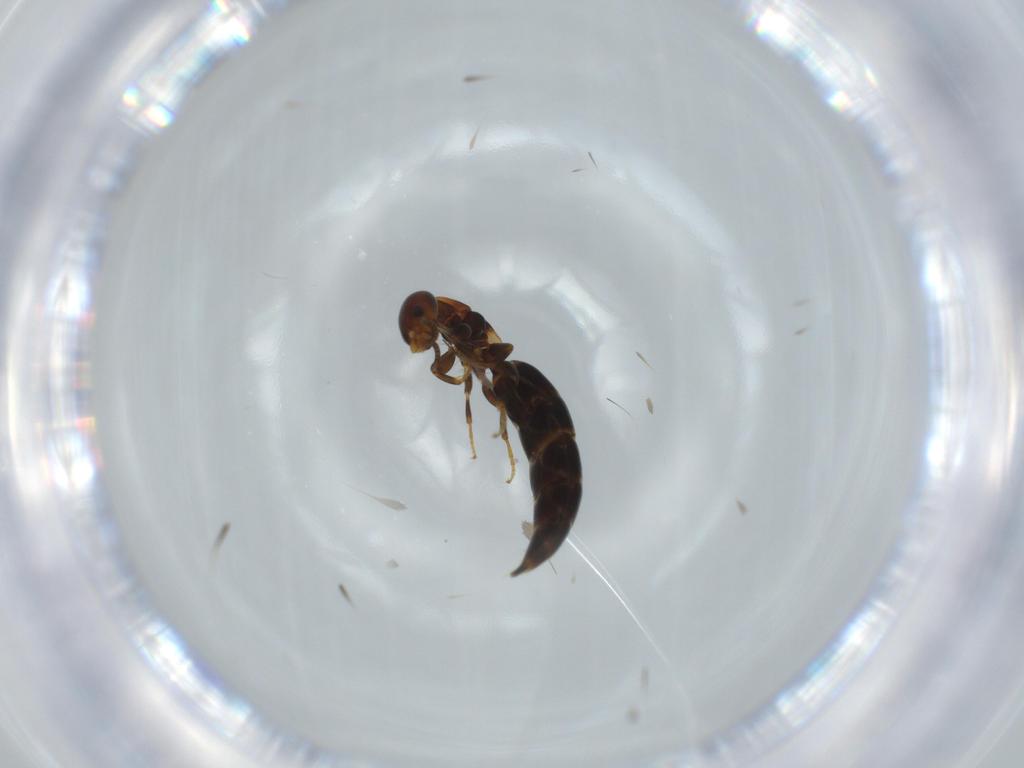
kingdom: Animalia
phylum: Arthropoda
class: Insecta
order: Hymenoptera
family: Bethylidae
